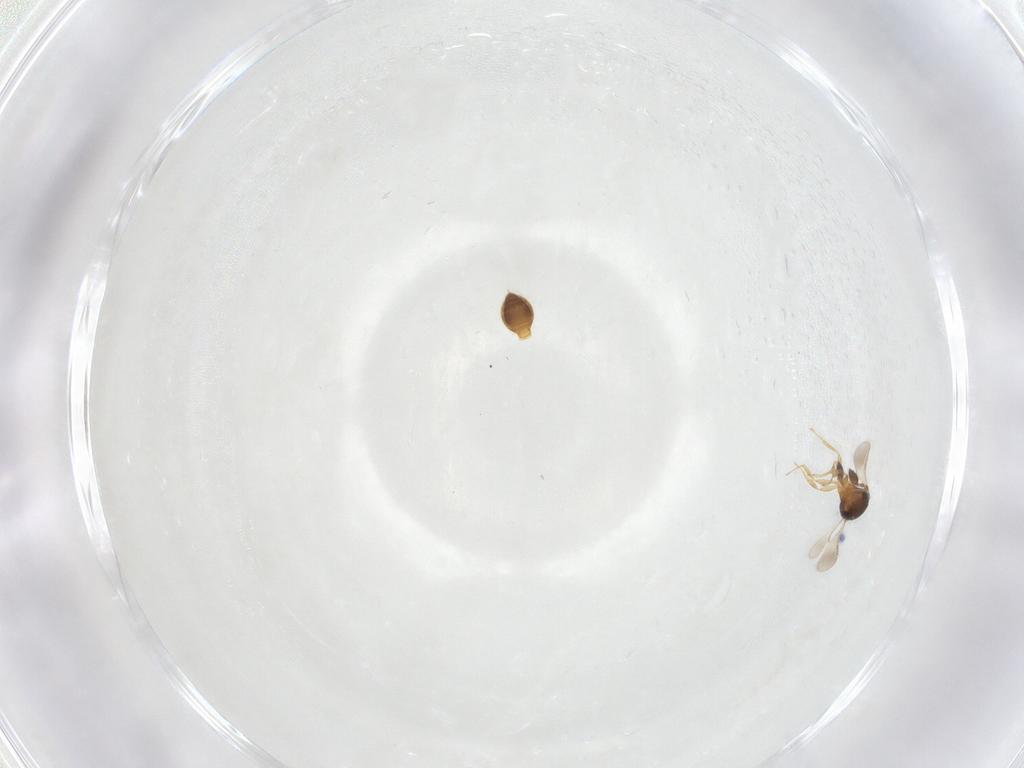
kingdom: Animalia
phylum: Arthropoda
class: Insecta
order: Hymenoptera
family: Scelionidae
